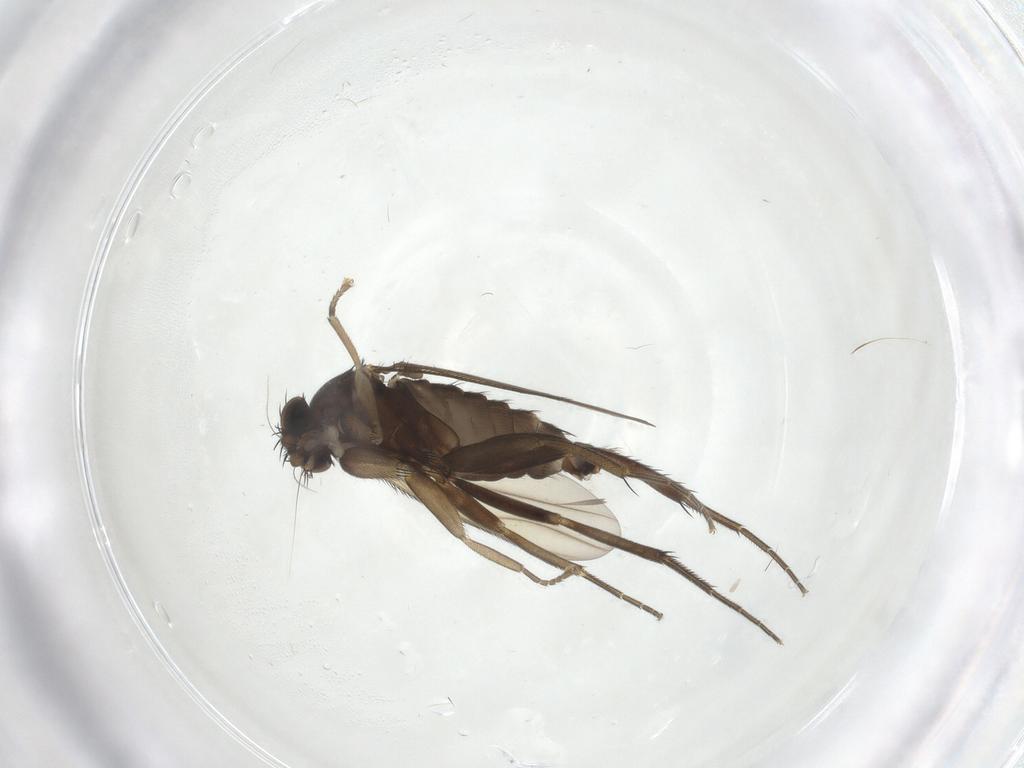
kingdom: Animalia
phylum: Arthropoda
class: Insecta
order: Diptera
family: Phoridae
